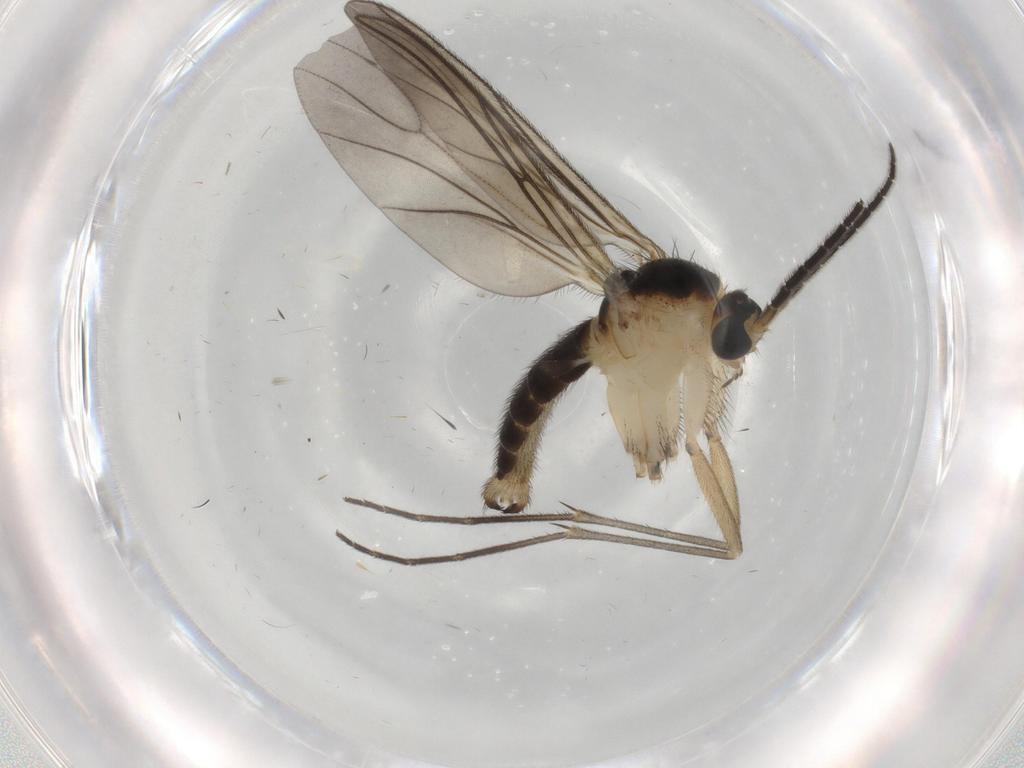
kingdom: Animalia
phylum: Arthropoda
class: Insecta
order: Diptera
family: Sciaridae
